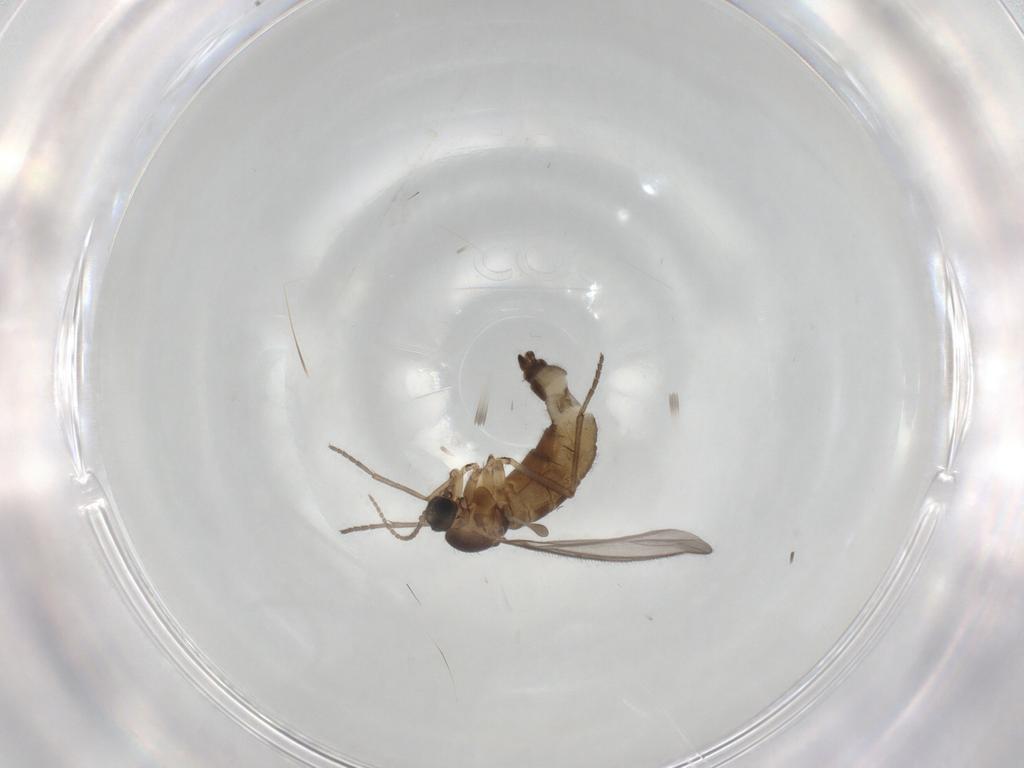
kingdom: Animalia
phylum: Arthropoda
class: Insecta
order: Diptera
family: Sciaridae
